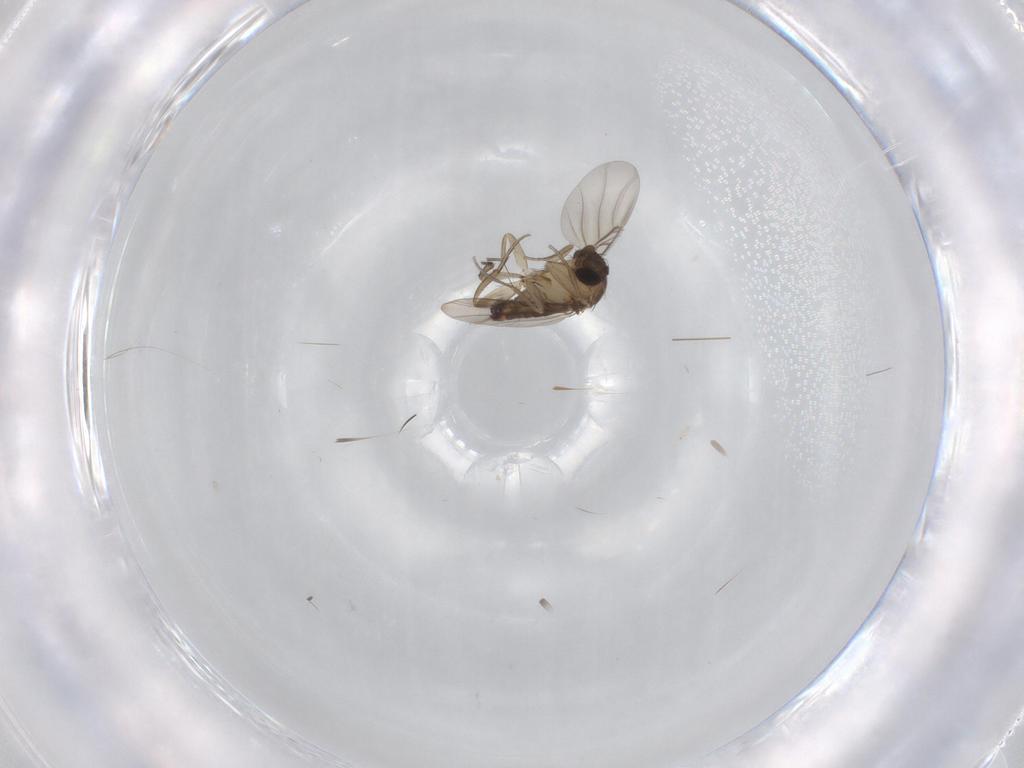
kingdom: Animalia
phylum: Arthropoda
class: Insecta
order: Diptera
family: Phoridae
